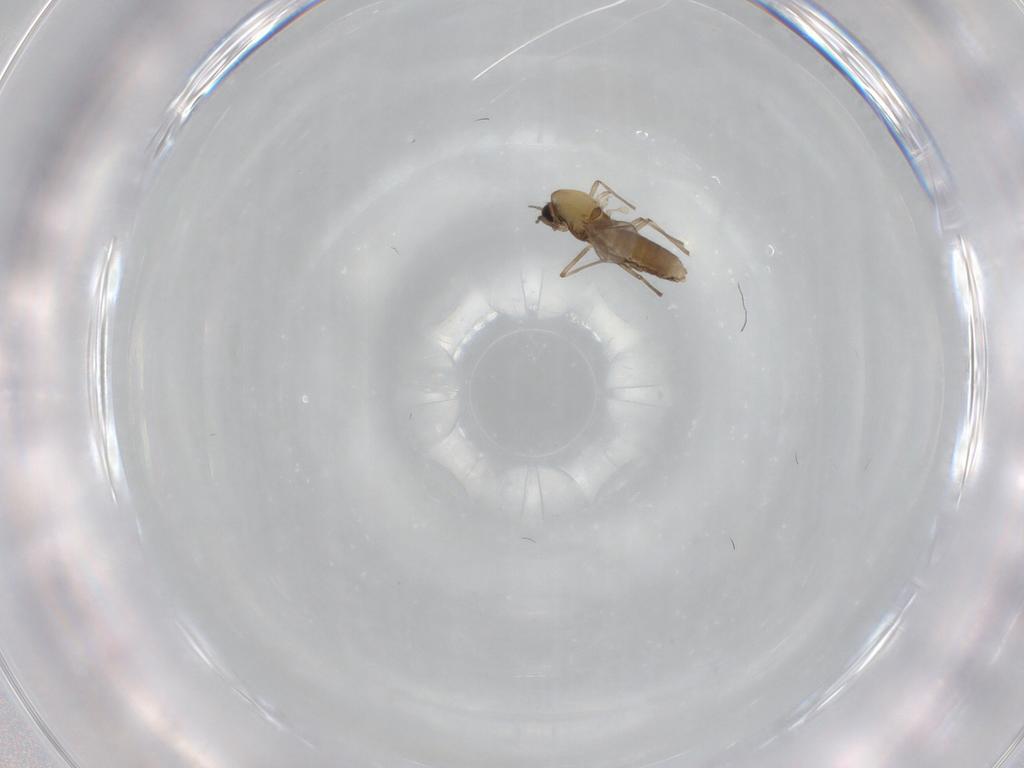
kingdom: Animalia
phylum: Arthropoda
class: Insecta
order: Diptera
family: Chironomidae
